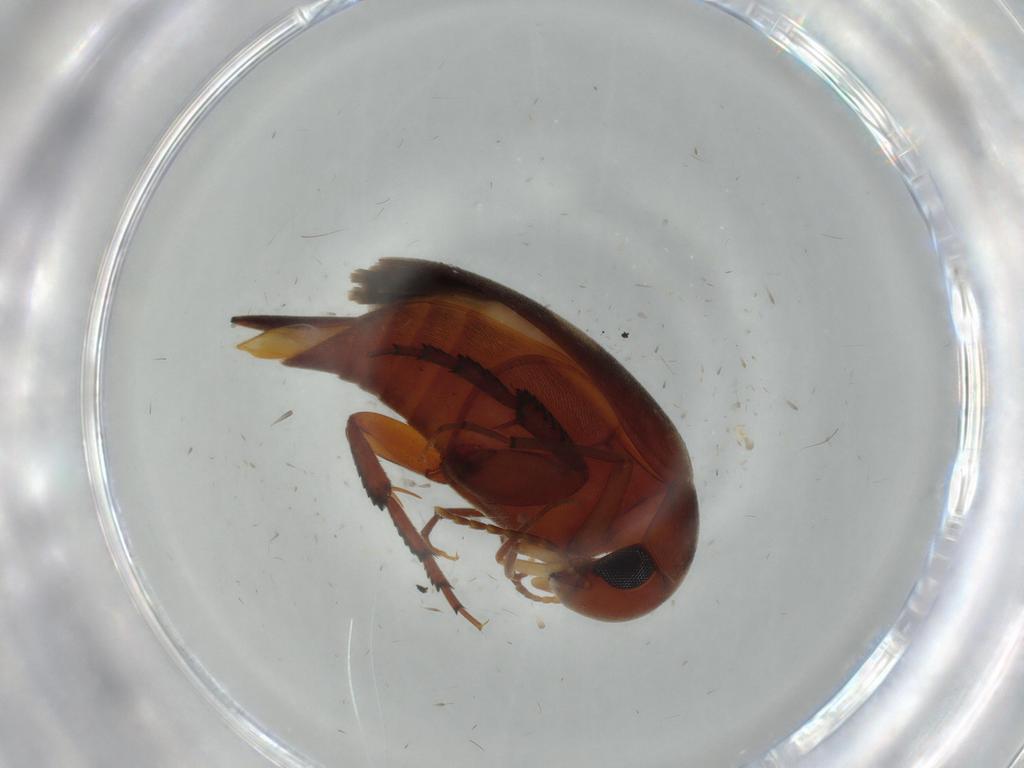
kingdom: Animalia
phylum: Arthropoda
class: Insecta
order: Coleoptera
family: Mordellidae
